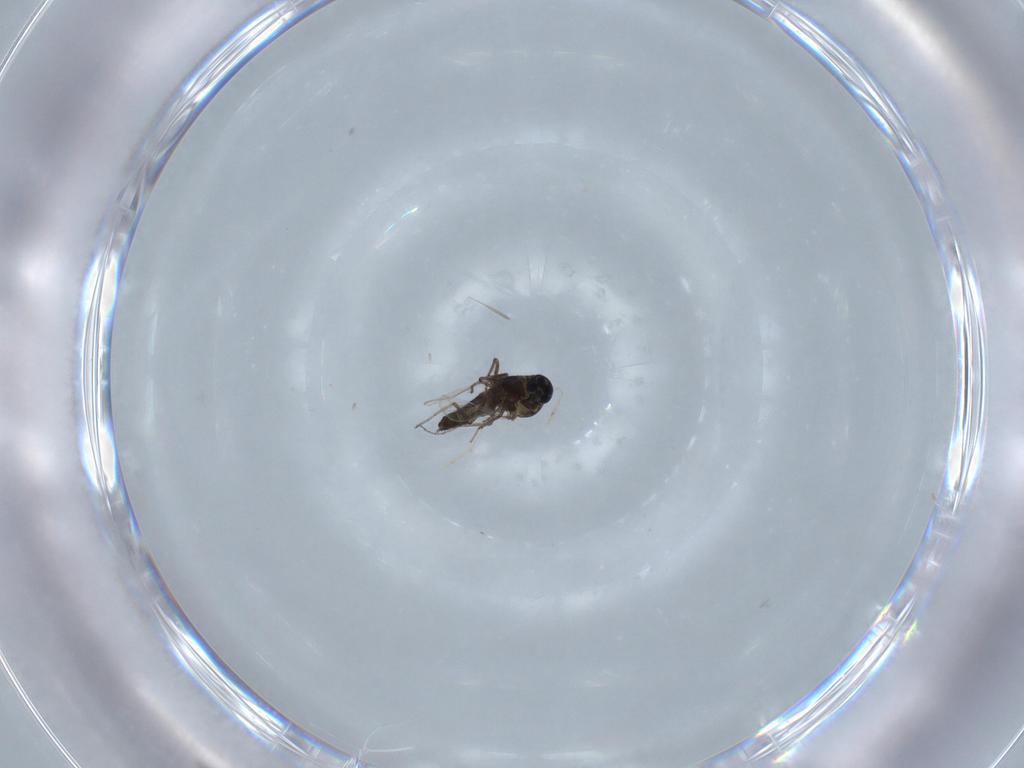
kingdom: Animalia
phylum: Arthropoda
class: Insecta
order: Diptera
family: Ceratopogonidae
